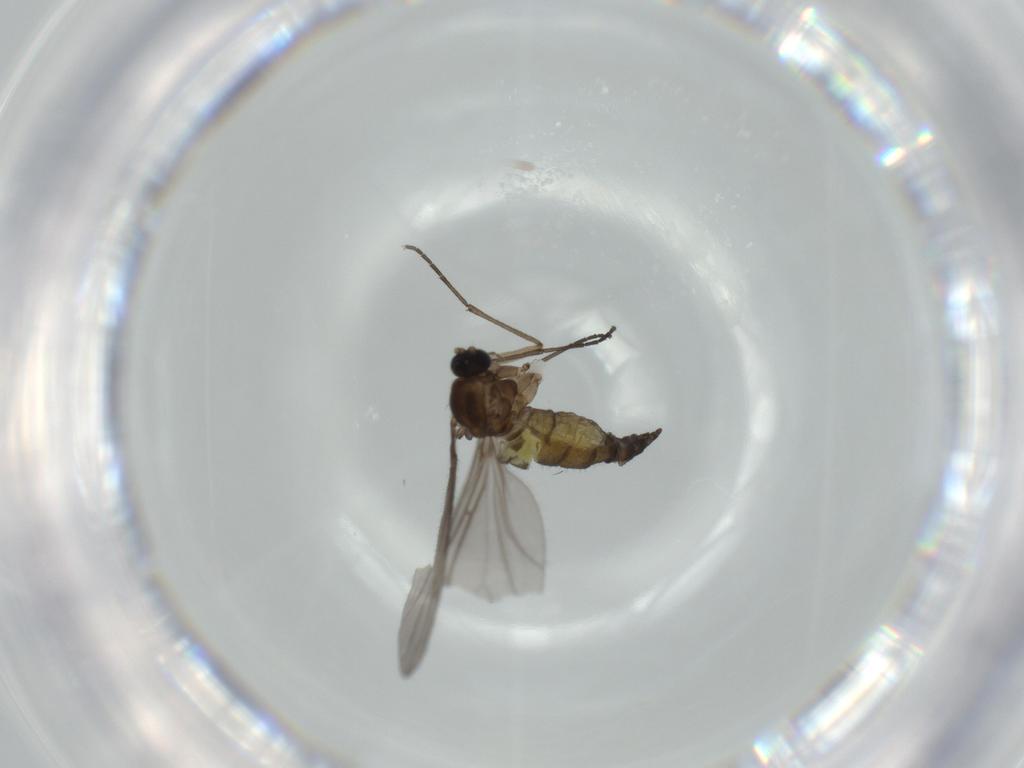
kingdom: Animalia
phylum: Arthropoda
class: Insecta
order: Diptera
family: Sciaridae
